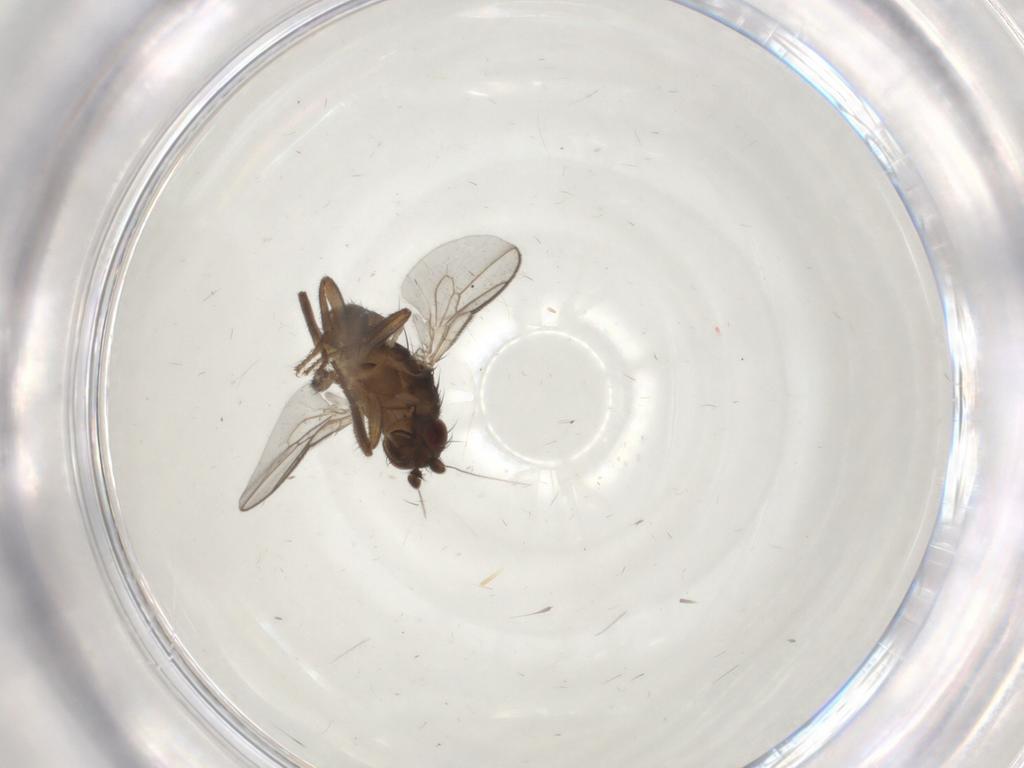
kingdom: Animalia
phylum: Arthropoda
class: Insecta
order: Diptera
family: Sphaeroceridae
